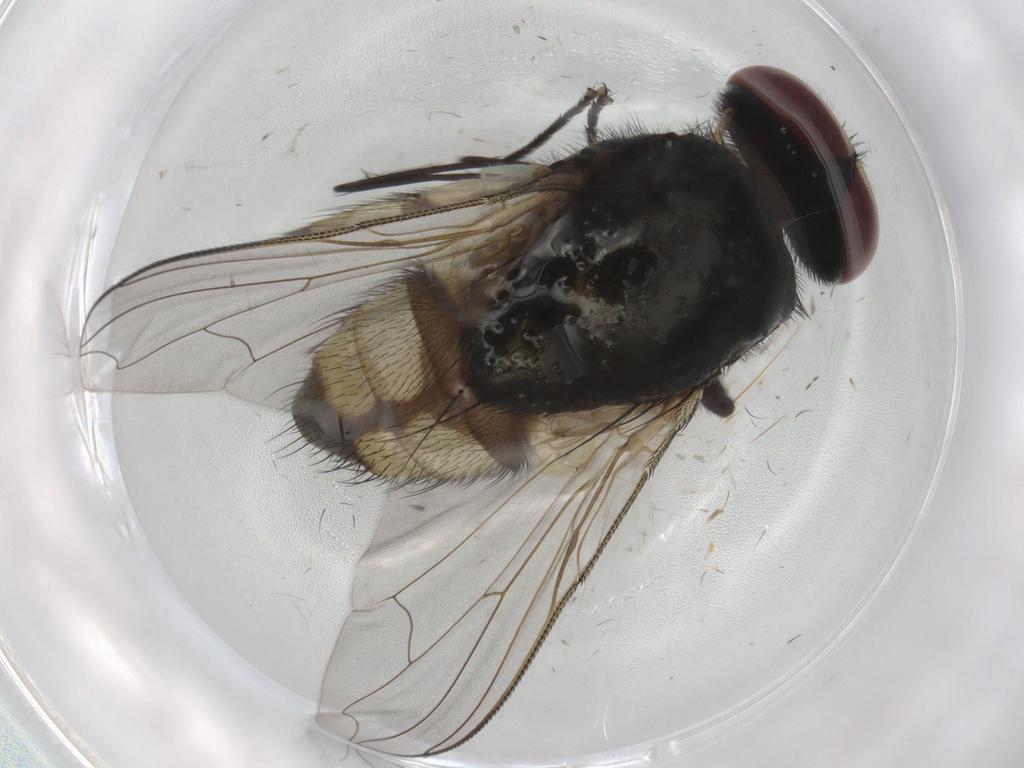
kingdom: Animalia
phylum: Arthropoda
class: Insecta
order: Diptera
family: Muscidae
